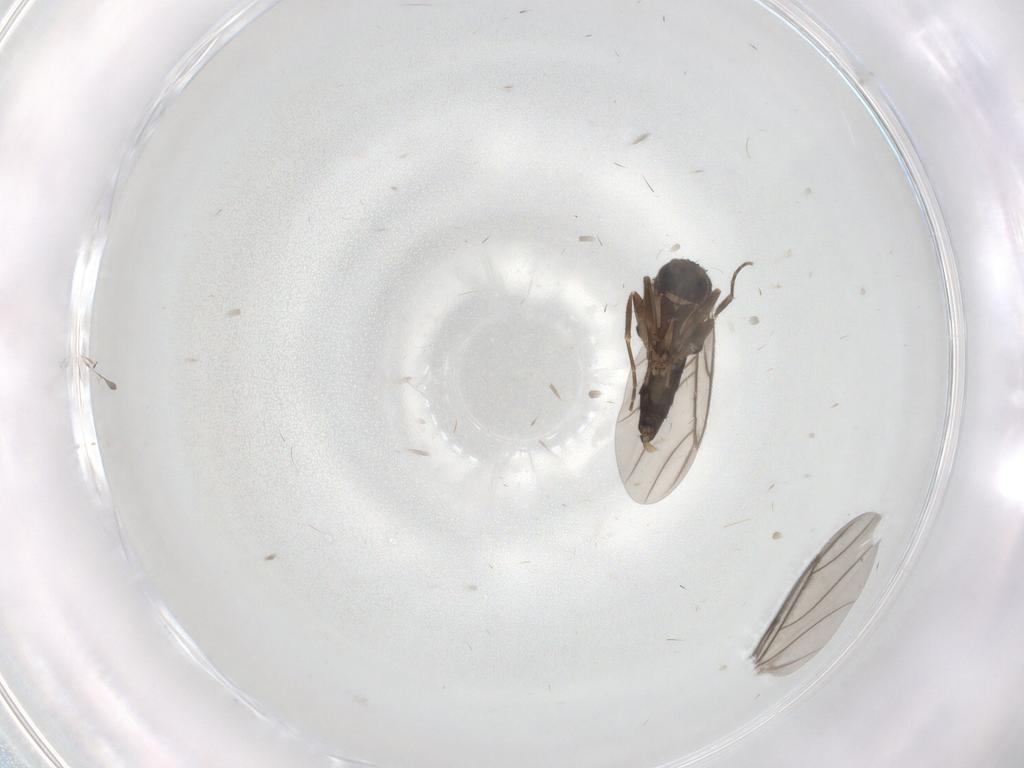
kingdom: Animalia
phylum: Arthropoda
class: Insecta
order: Diptera
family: Cecidomyiidae
